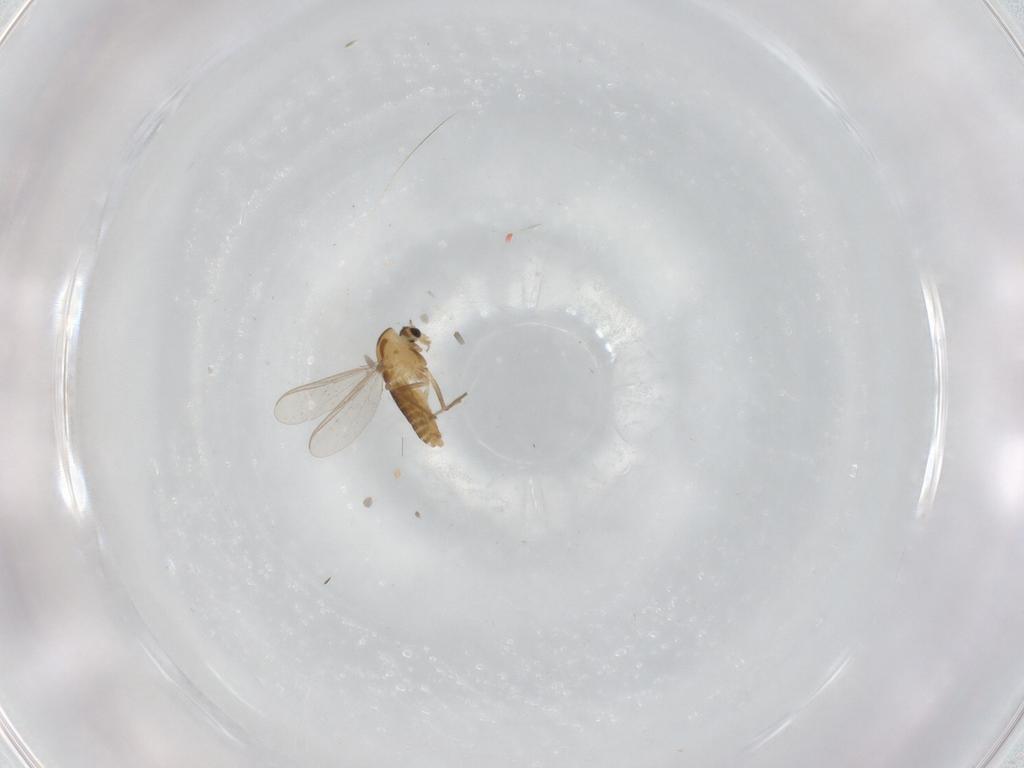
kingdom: Animalia
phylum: Arthropoda
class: Insecta
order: Diptera
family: Chironomidae
